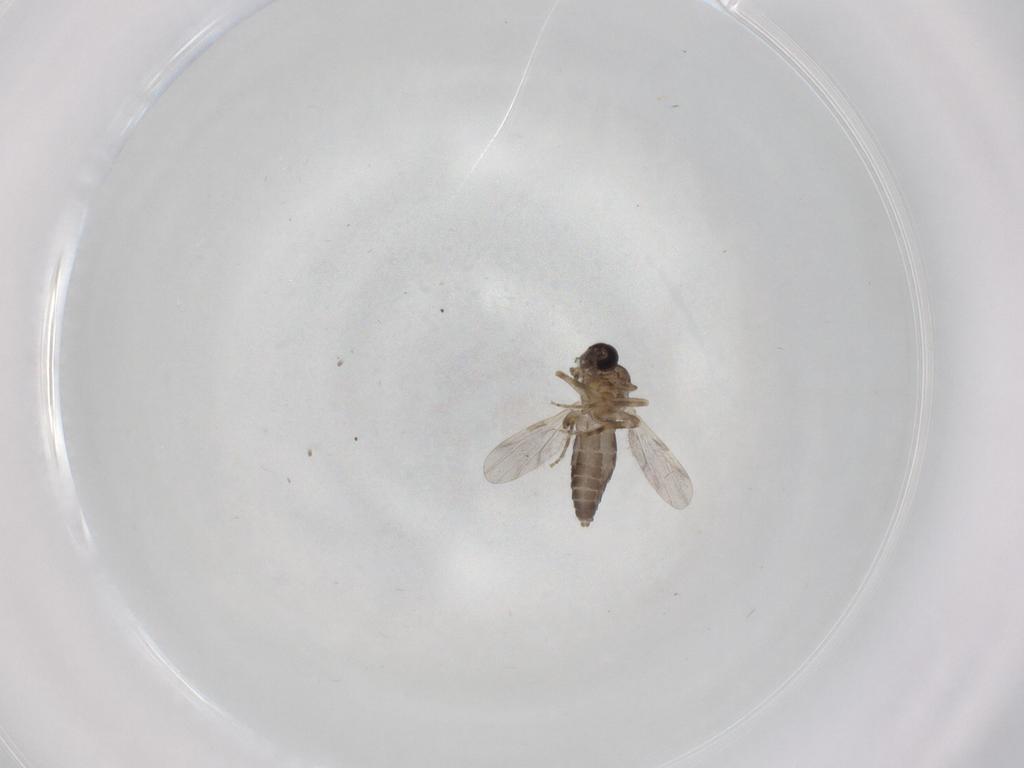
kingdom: Animalia
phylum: Arthropoda
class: Insecta
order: Diptera
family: Ceratopogonidae
